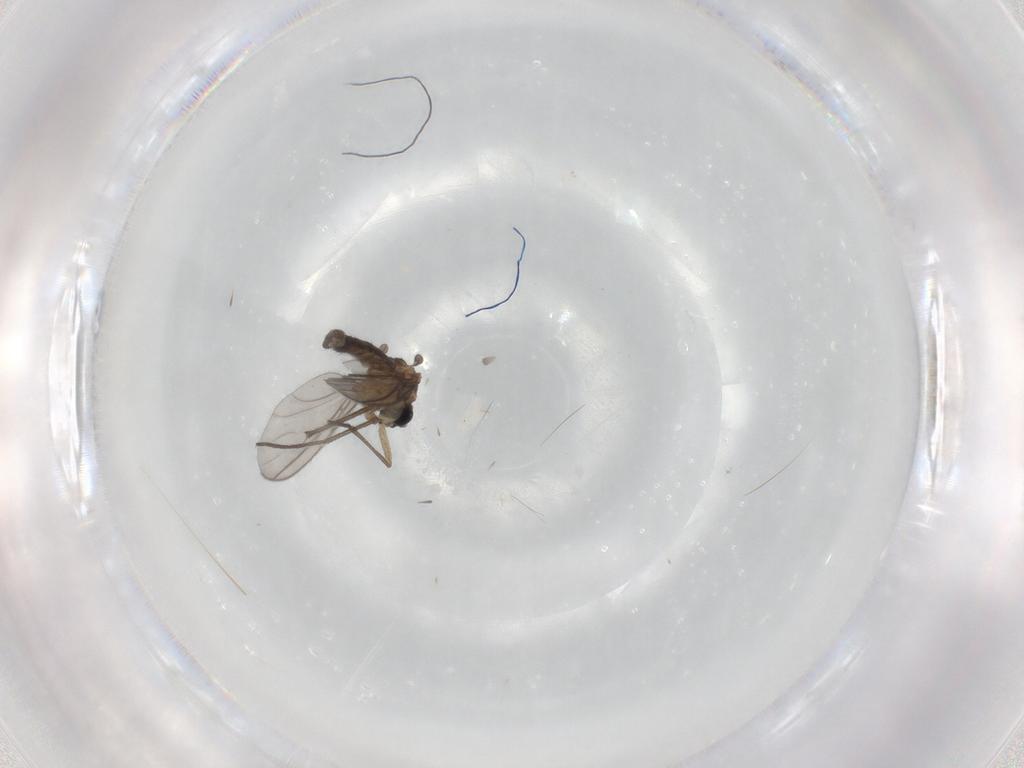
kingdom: Animalia
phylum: Arthropoda
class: Insecta
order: Diptera
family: Sciaridae
